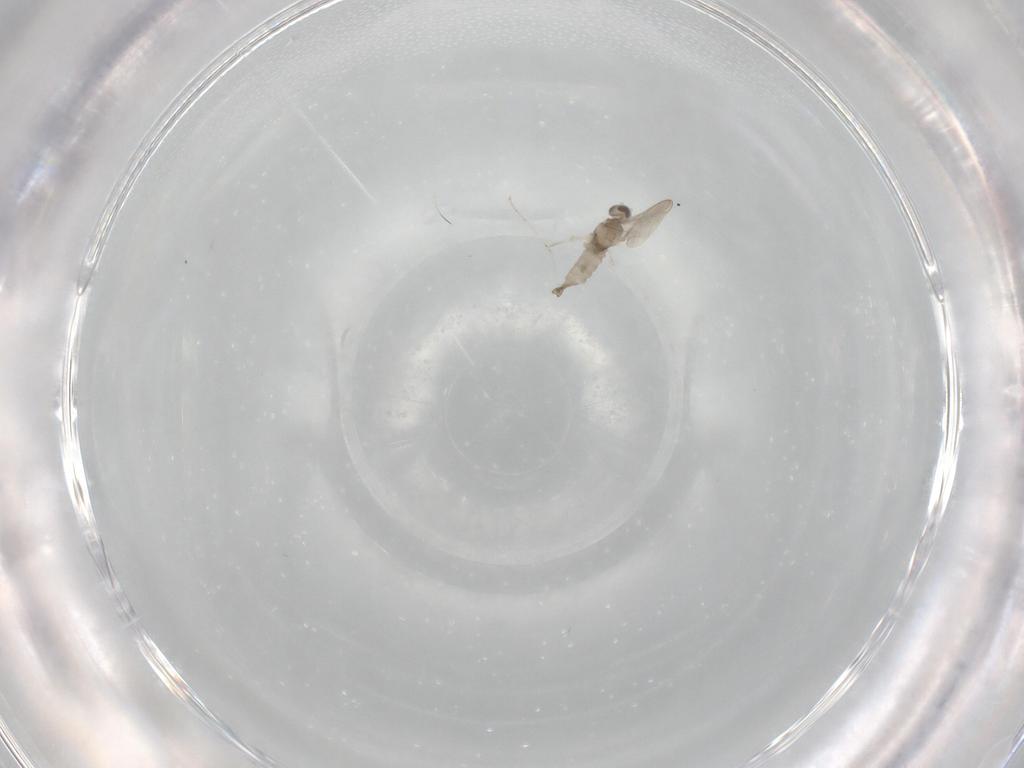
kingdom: Animalia
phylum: Arthropoda
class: Insecta
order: Diptera
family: Cecidomyiidae
